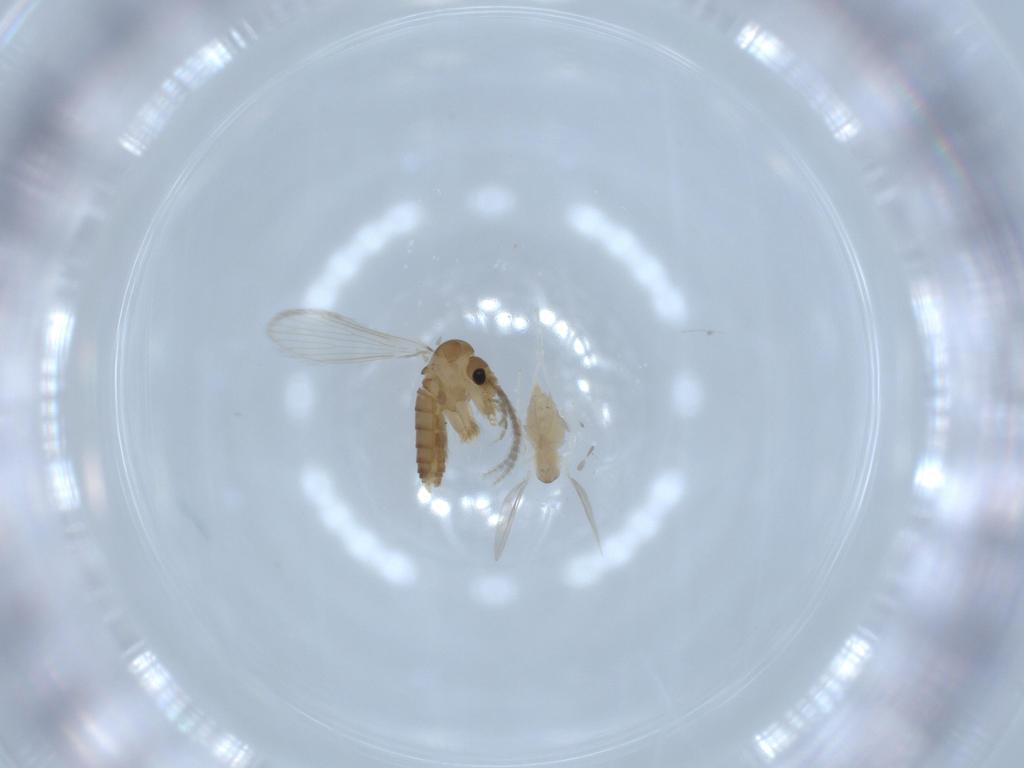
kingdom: Animalia
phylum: Arthropoda
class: Insecta
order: Diptera
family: Cecidomyiidae
